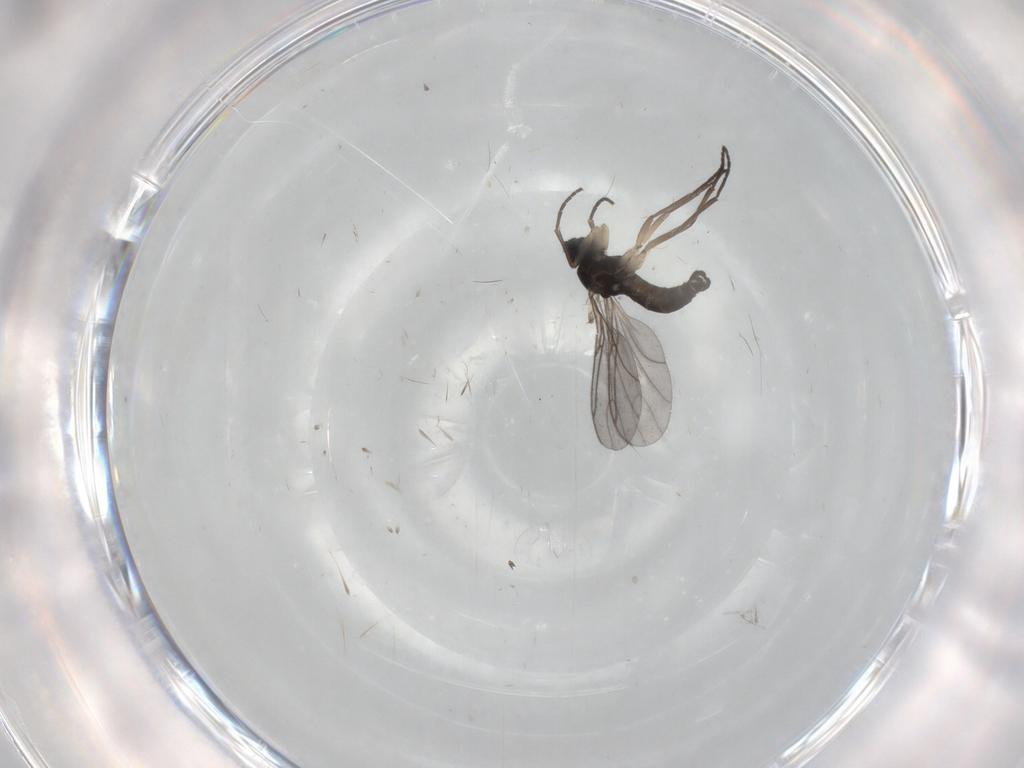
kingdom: Animalia
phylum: Arthropoda
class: Insecta
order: Diptera
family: Sciaridae
